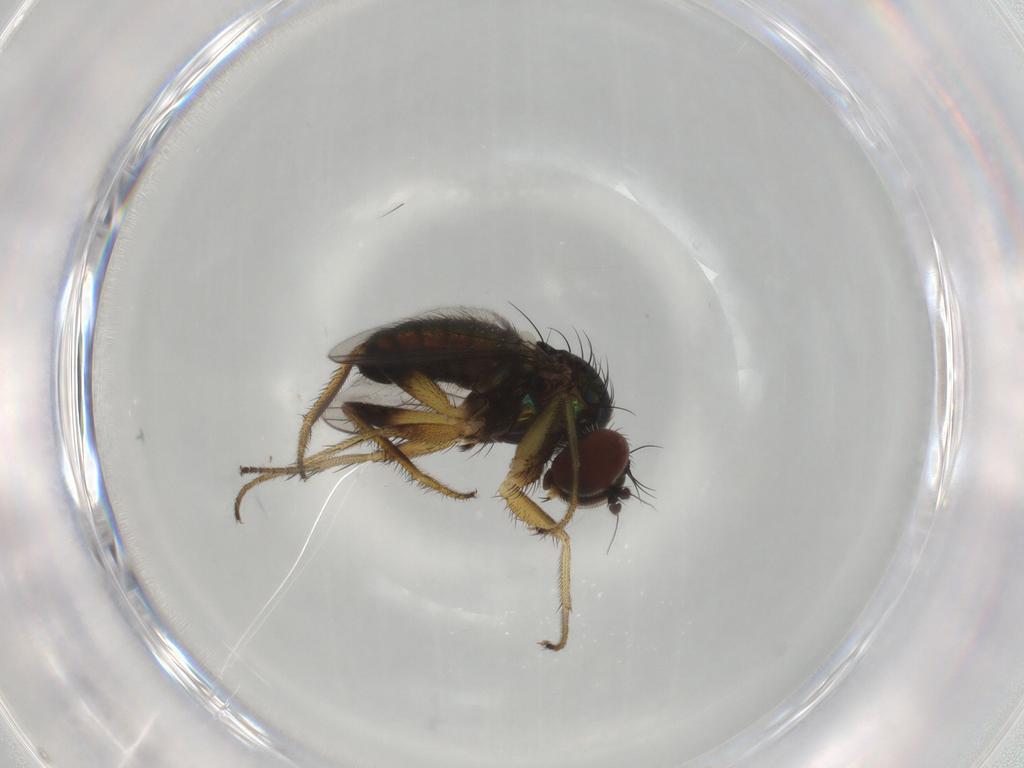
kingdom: Animalia
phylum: Arthropoda
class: Insecta
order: Diptera
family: Dolichopodidae
